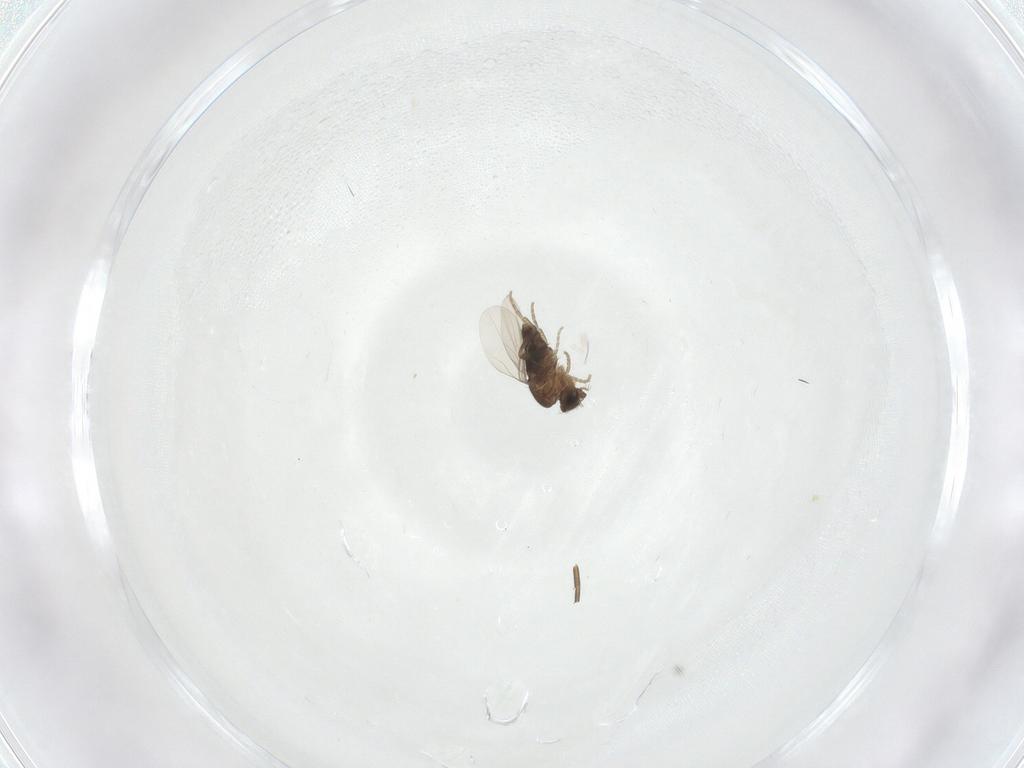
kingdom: Animalia
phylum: Arthropoda
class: Insecta
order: Diptera
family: Phoridae
